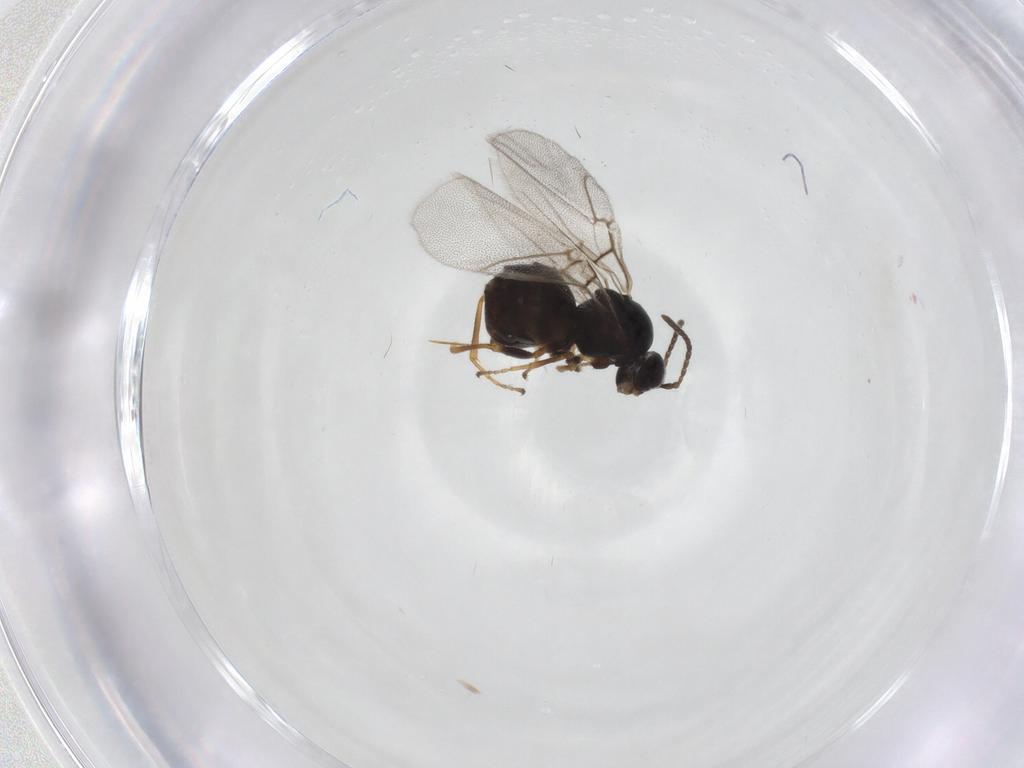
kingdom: Animalia
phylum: Arthropoda
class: Insecta
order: Hymenoptera
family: Cynipidae
